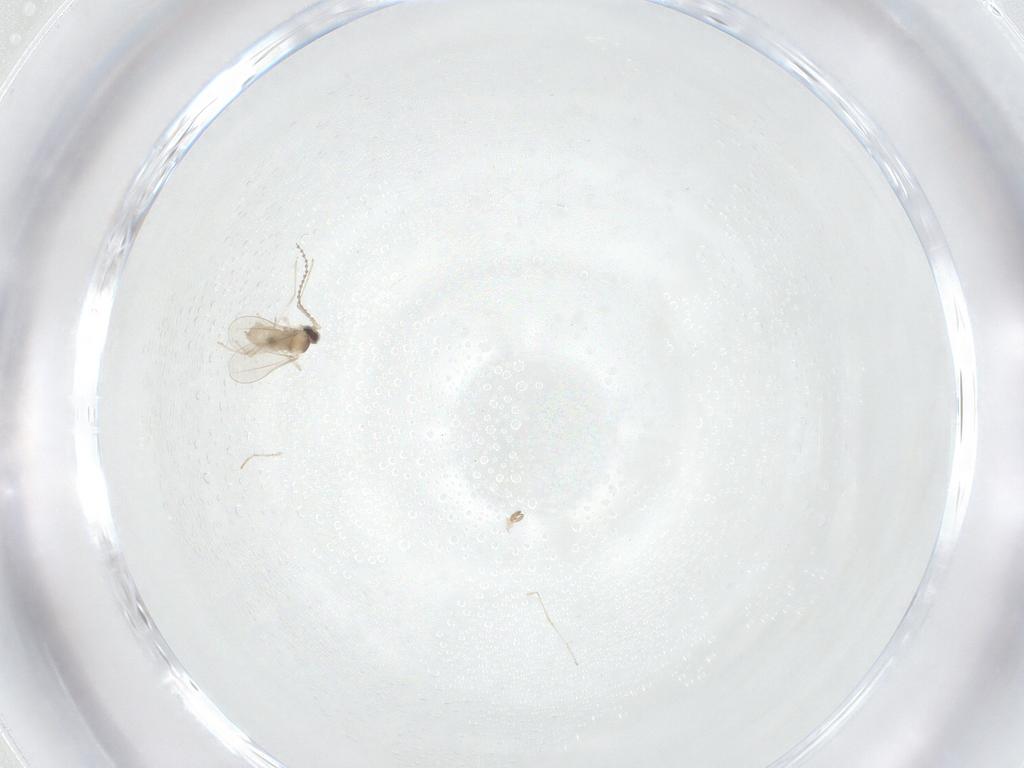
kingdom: Animalia
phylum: Arthropoda
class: Insecta
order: Diptera
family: Cecidomyiidae
